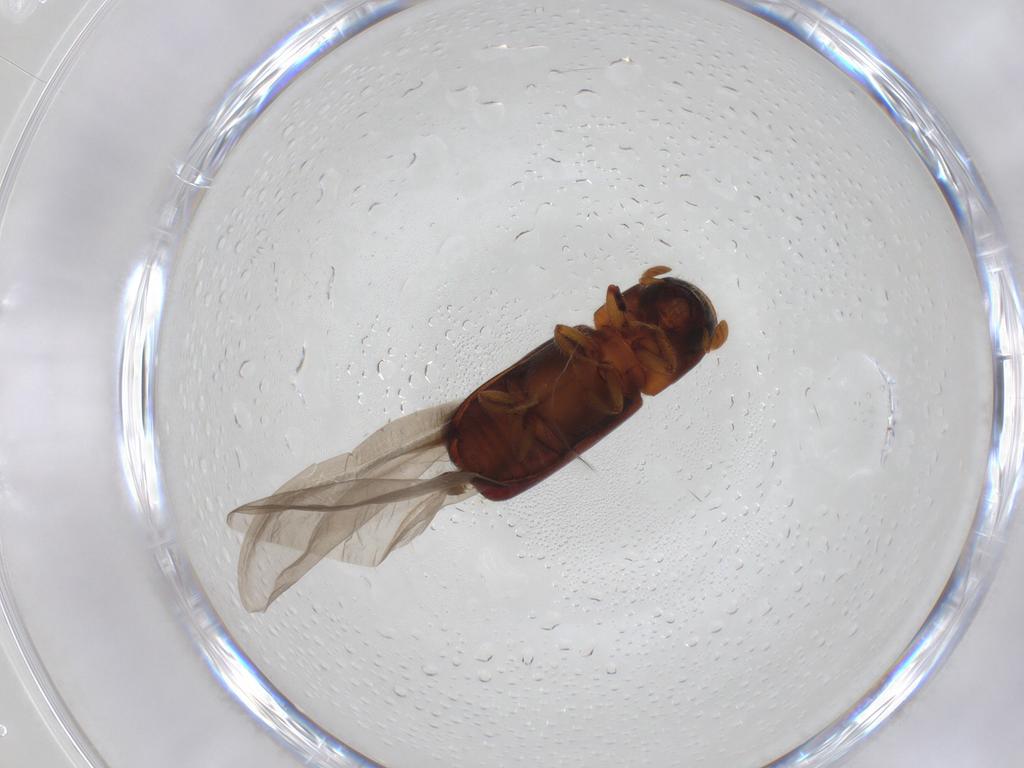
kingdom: Animalia
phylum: Arthropoda
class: Insecta
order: Coleoptera
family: Curculionidae
